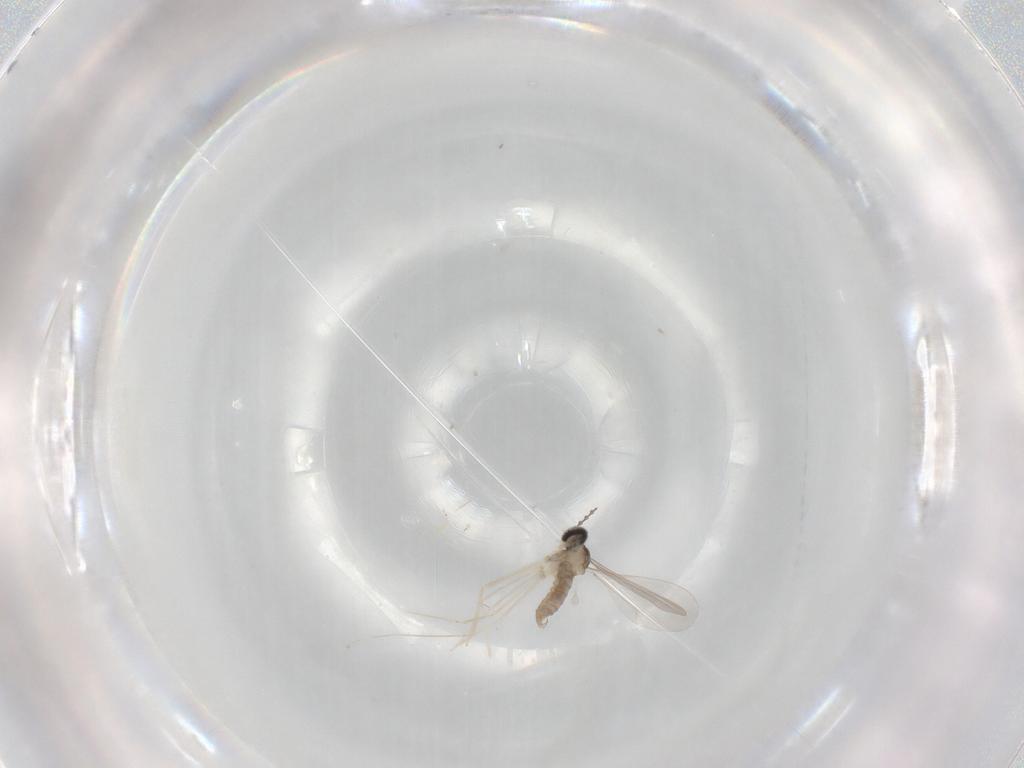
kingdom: Animalia
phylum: Arthropoda
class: Insecta
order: Diptera
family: Cecidomyiidae
